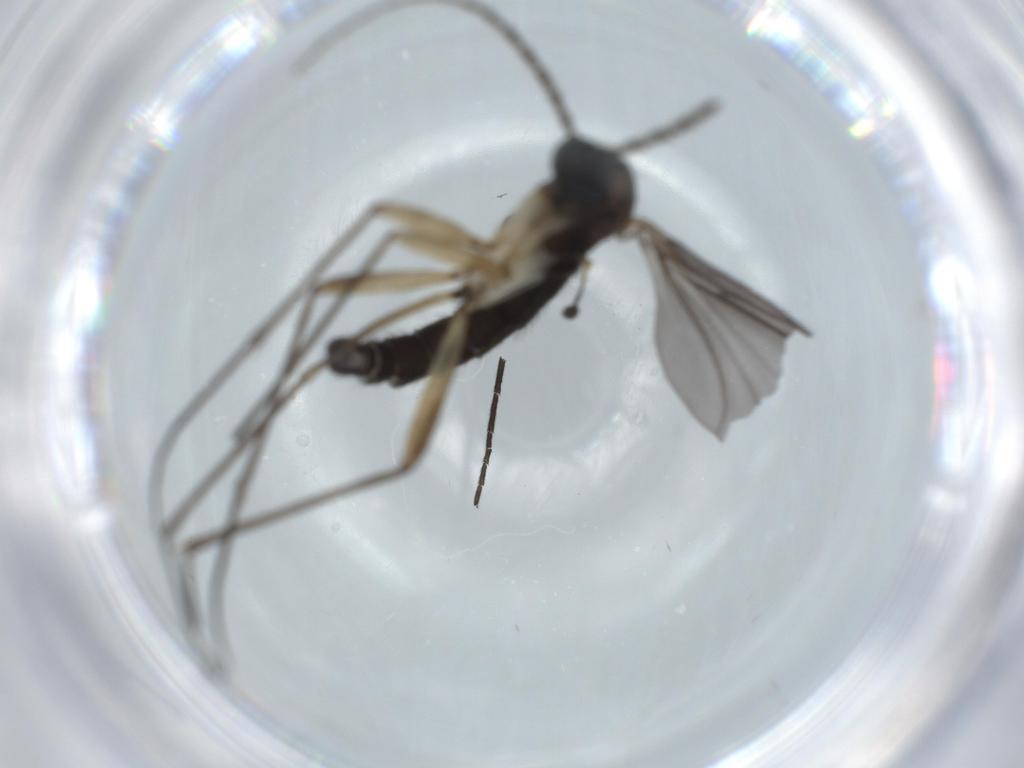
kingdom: Animalia
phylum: Arthropoda
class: Insecta
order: Diptera
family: Sciaridae
